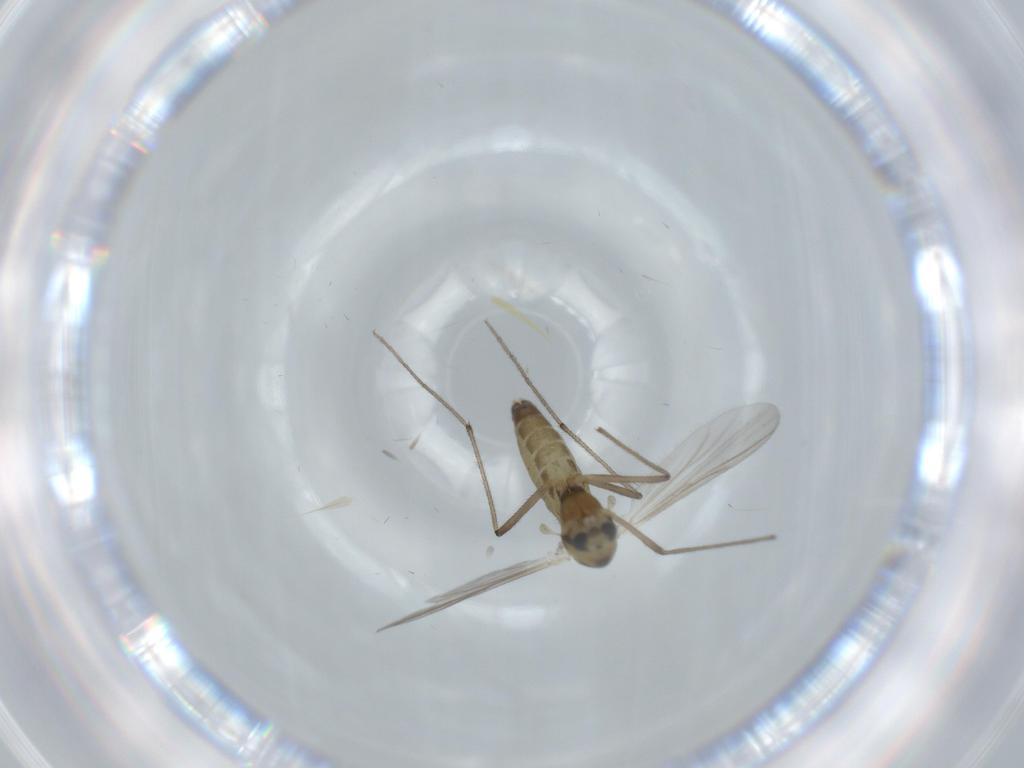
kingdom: Animalia
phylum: Arthropoda
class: Insecta
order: Diptera
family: Chironomidae
